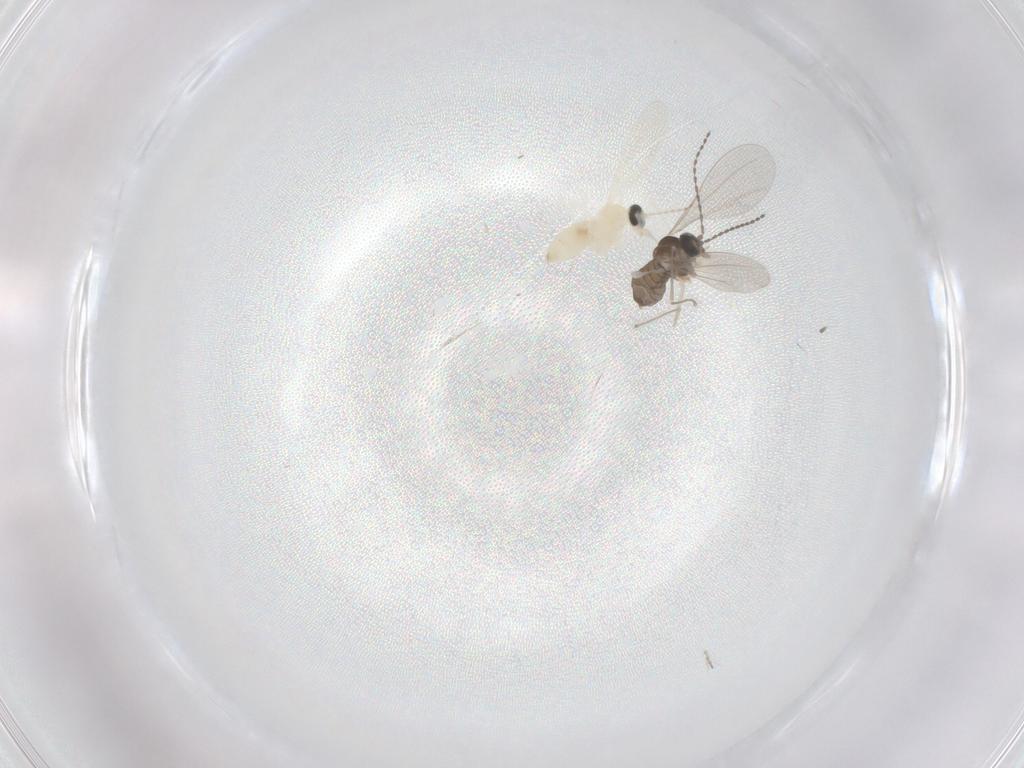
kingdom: Animalia
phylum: Arthropoda
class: Insecta
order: Diptera
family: Cecidomyiidae
